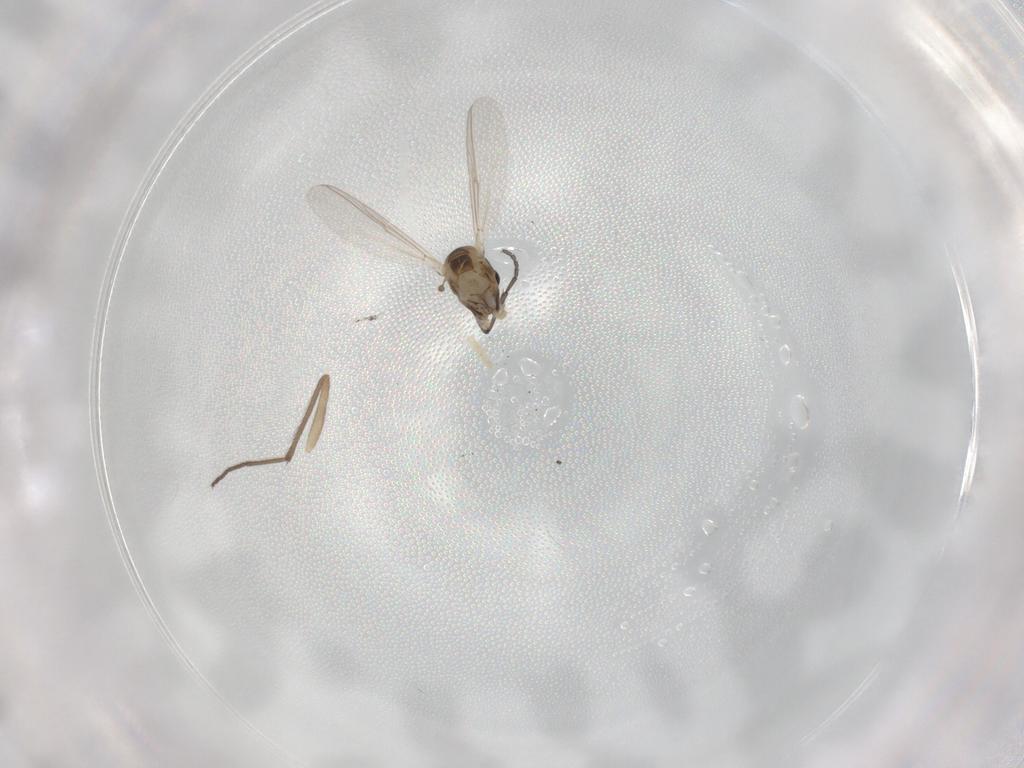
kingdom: Animalia
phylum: Arthropoda
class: Insecta
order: Diptera
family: Chironomidae
